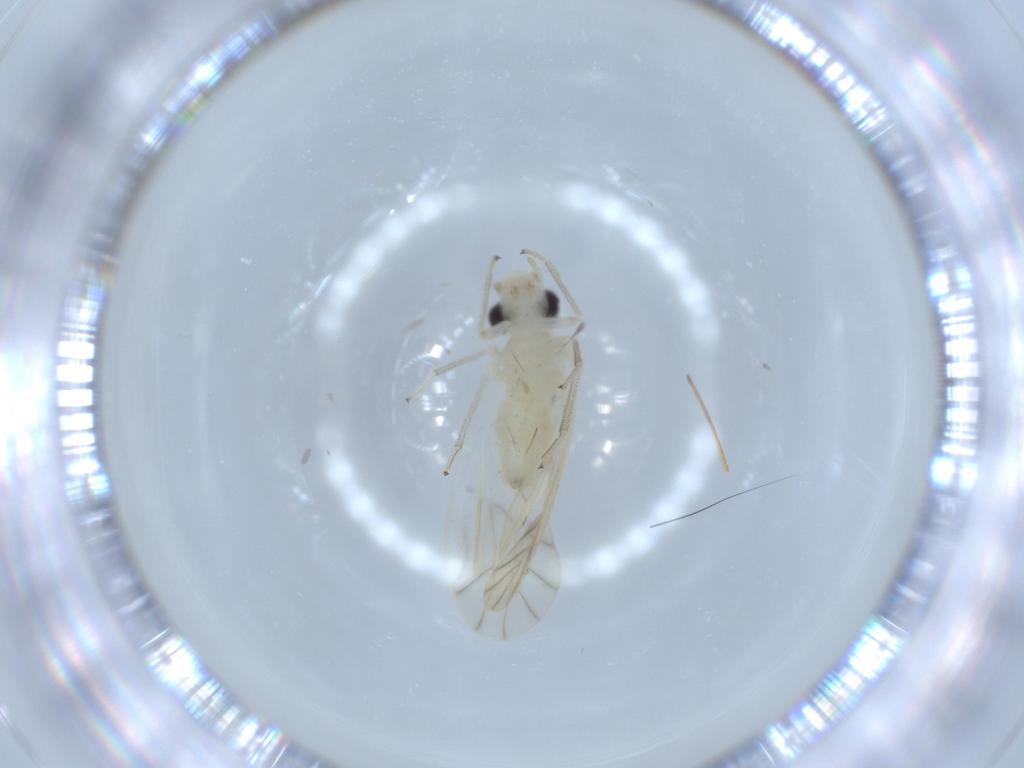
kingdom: Animalia
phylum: Arthropoda
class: Insecta
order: Psocodea
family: Caeciliusidae
